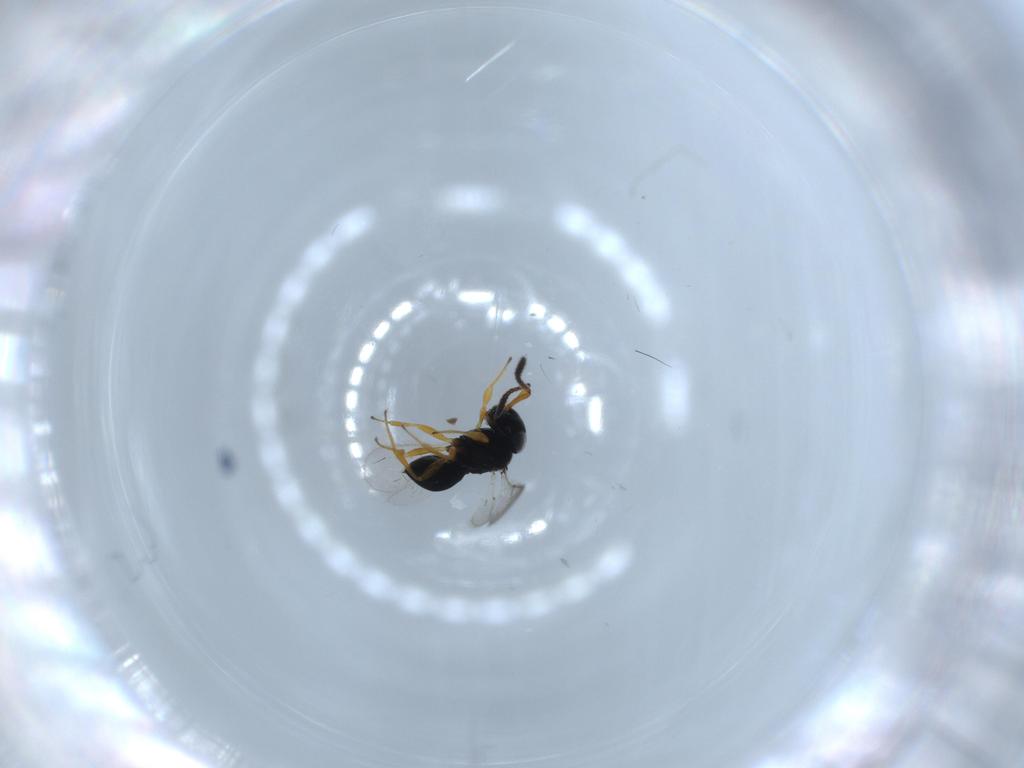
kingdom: Animalia
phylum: Arthropoda
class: Insecta
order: Hymenoptera
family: Scelionidae
